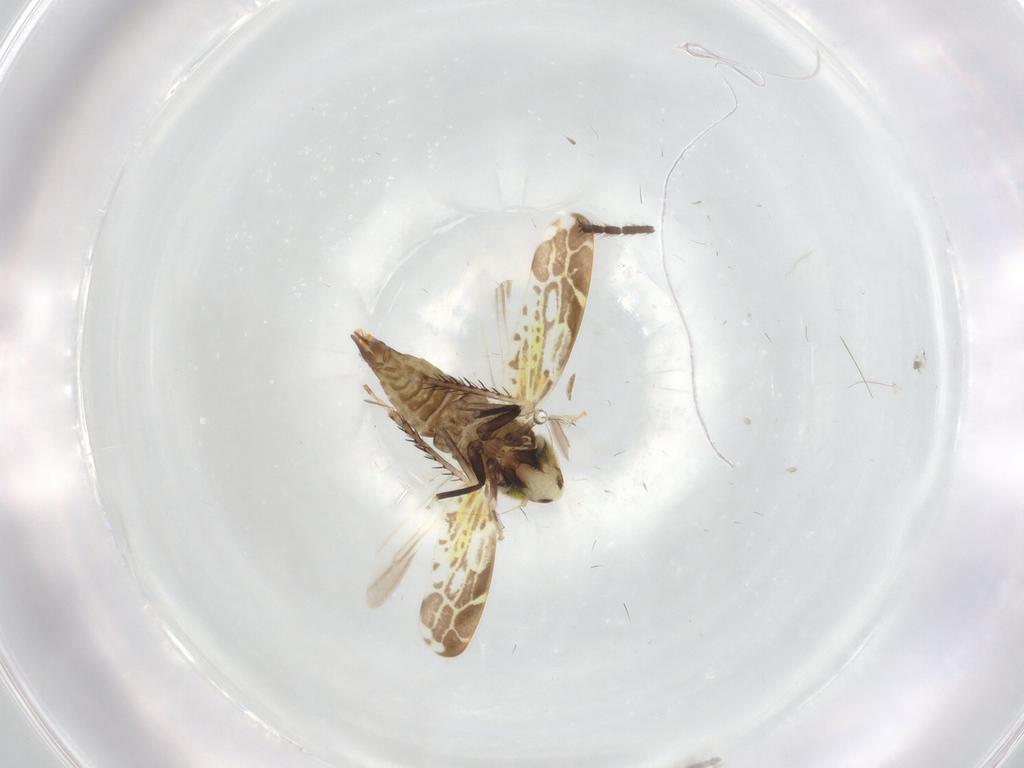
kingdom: Animalia
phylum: Arthropoda
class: Insecta
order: Hemiptera
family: Cicadellidae
